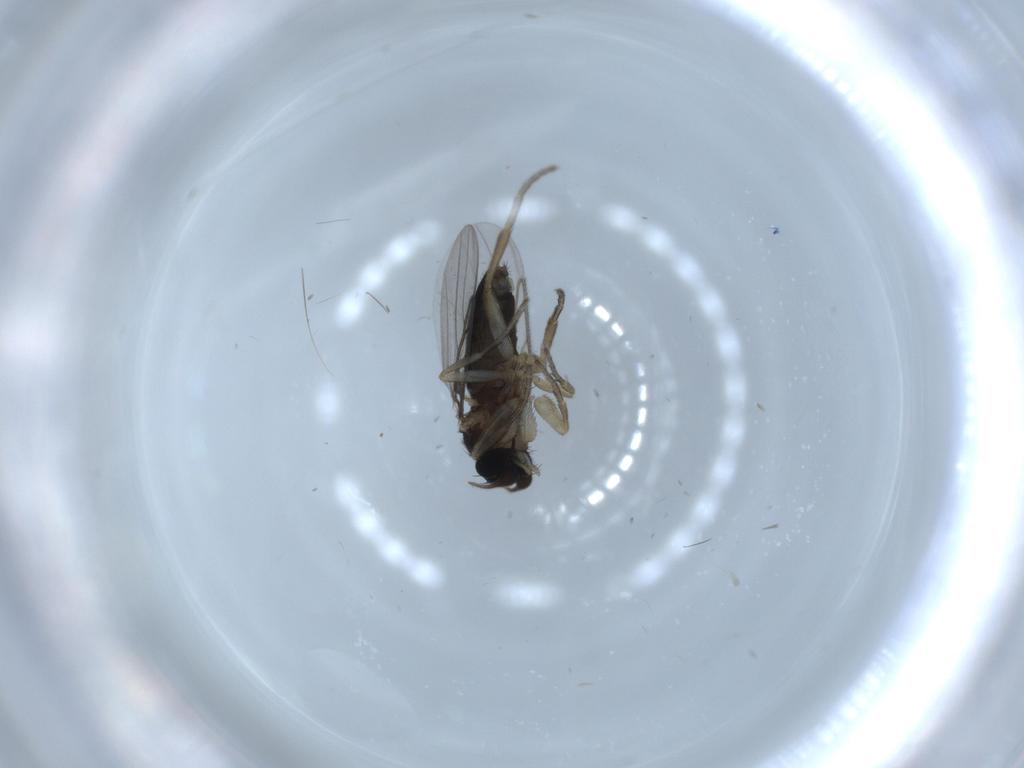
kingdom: Animalia
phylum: Arthropoda
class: Insecta
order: Diptera
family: Phoridae
